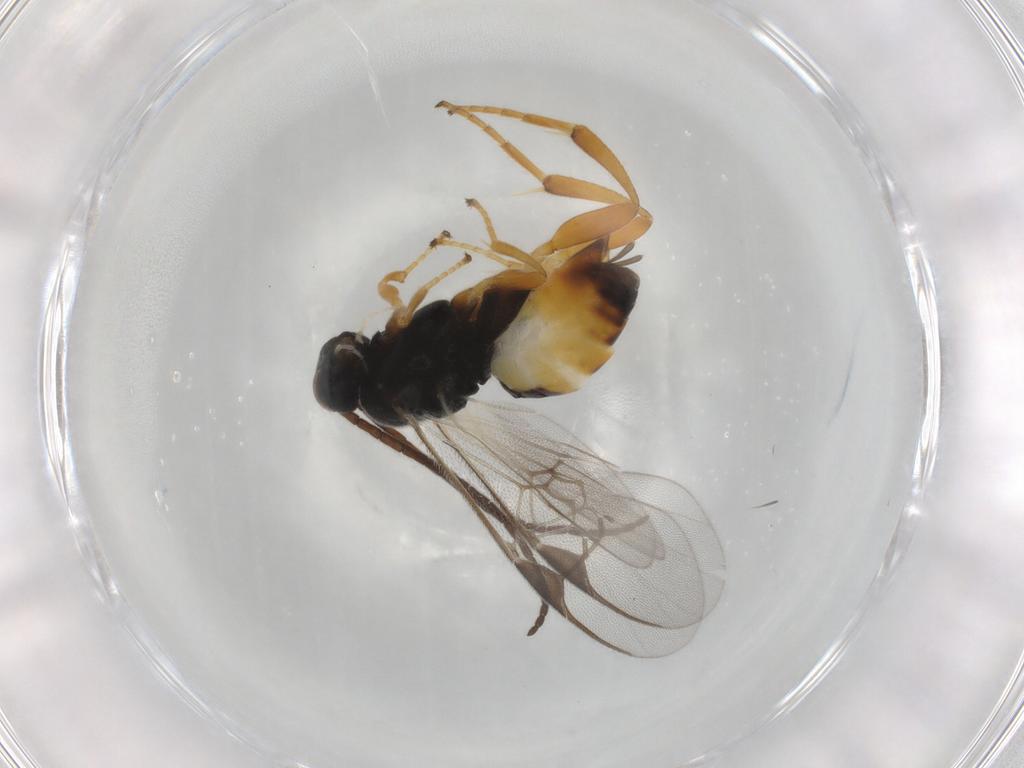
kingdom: Animalia
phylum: Arthropoda
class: Insecta
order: Hymenoptera
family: Braconidae
